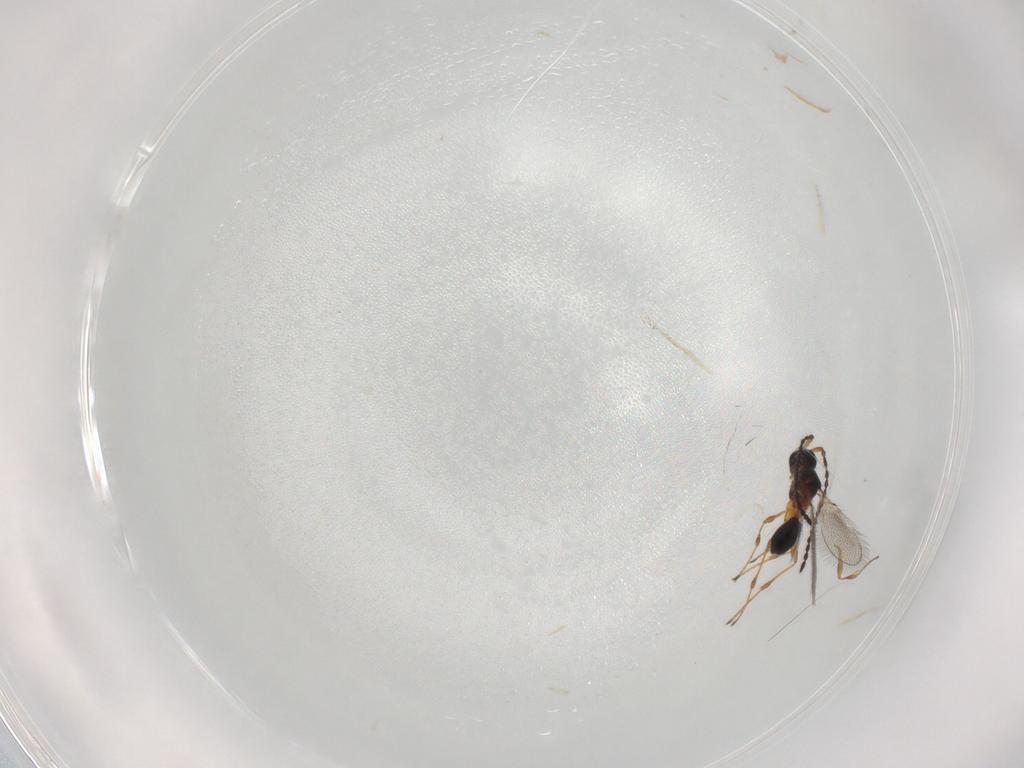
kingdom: Animalia
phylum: Arthropoda
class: Insecta
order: Hymenoptera
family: Diapriidae
